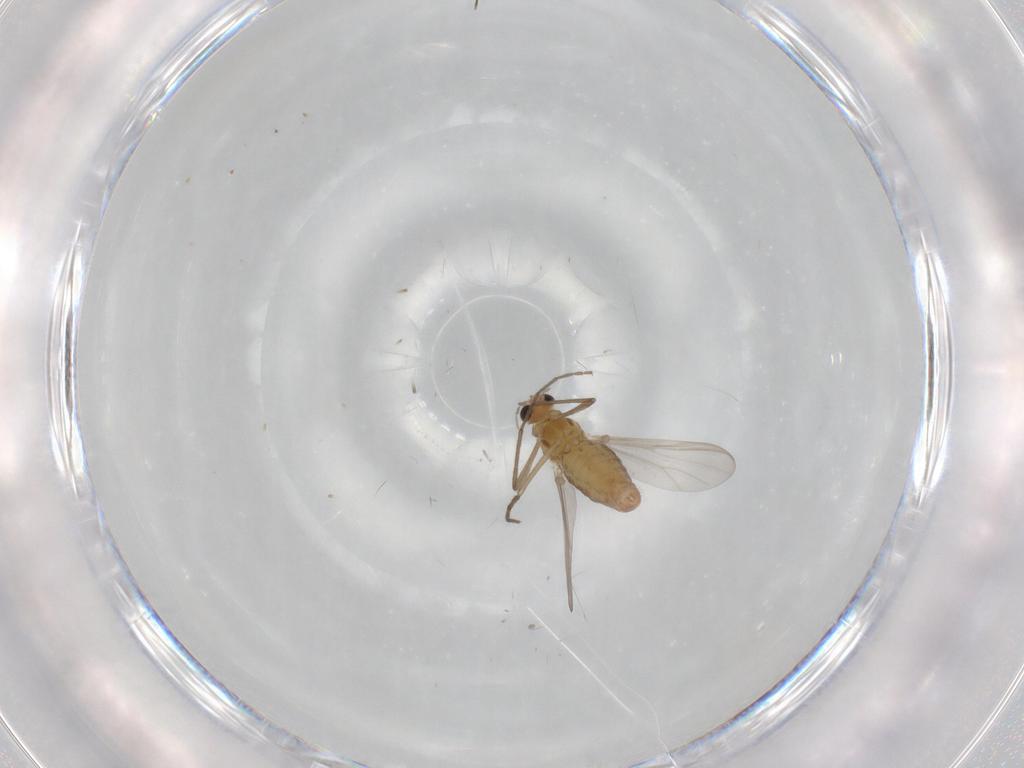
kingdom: Animalia
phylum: Arthropoda
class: Insecta
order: Diptera
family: Chironomidae
